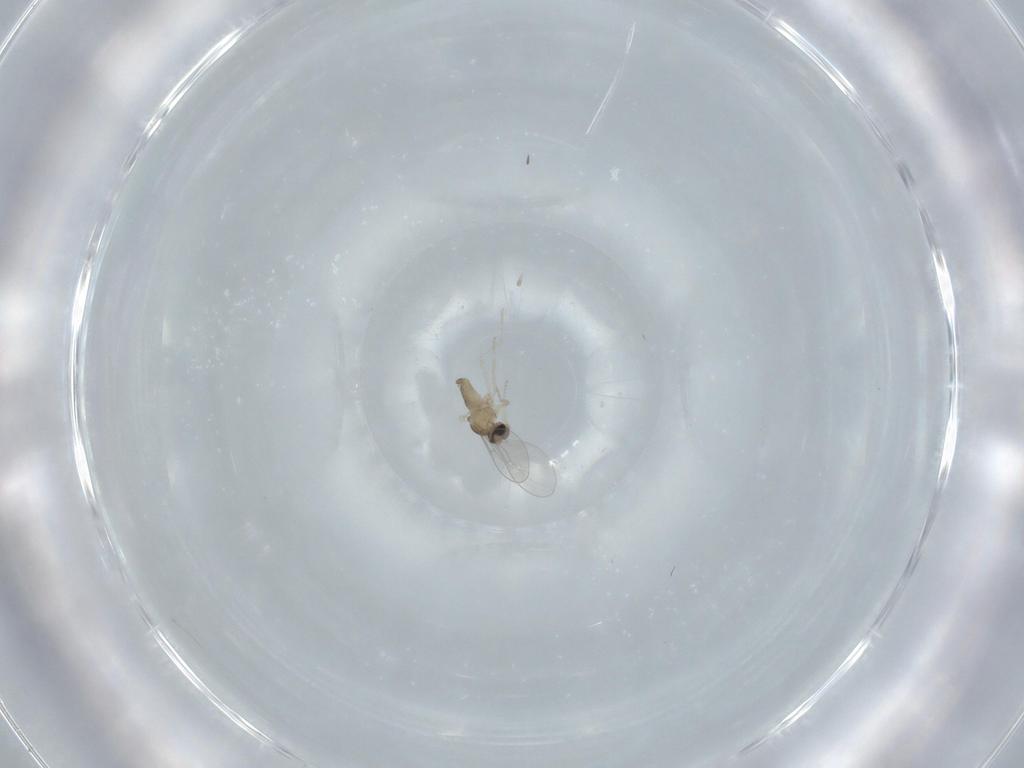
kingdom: Animalia
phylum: Arthropoda
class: Insecta
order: Diptera
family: Cecidomyiidae
